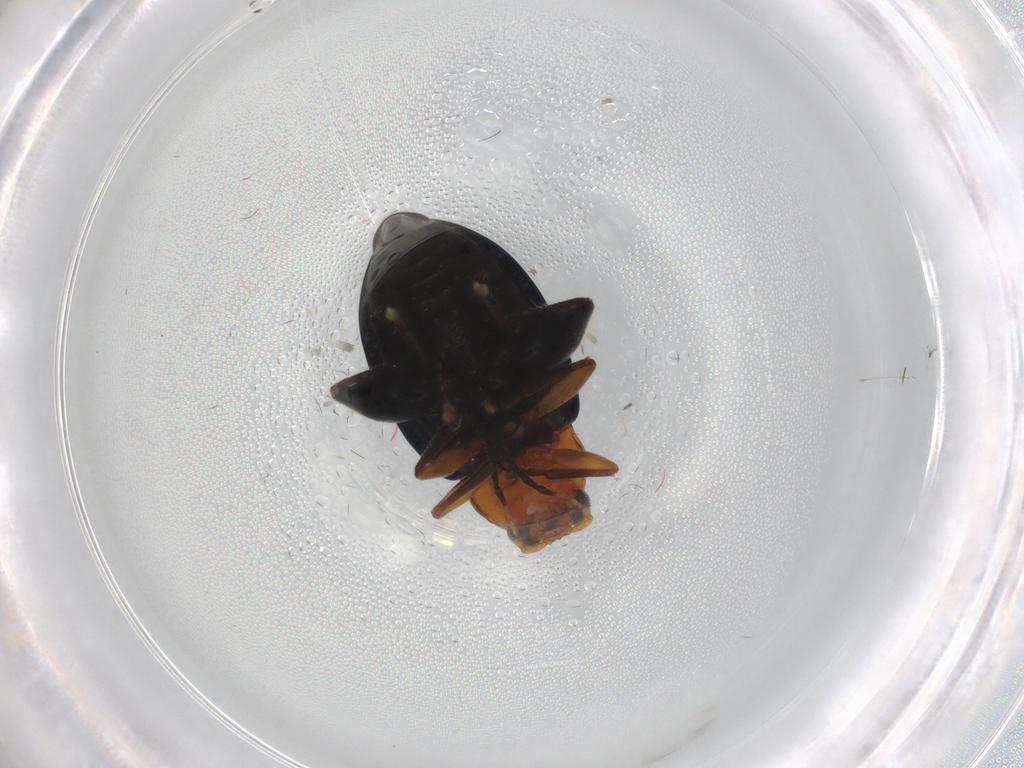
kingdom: Animalia
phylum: Arthropoda
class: Insecta
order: Coleoptera
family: Chrysomelidae
